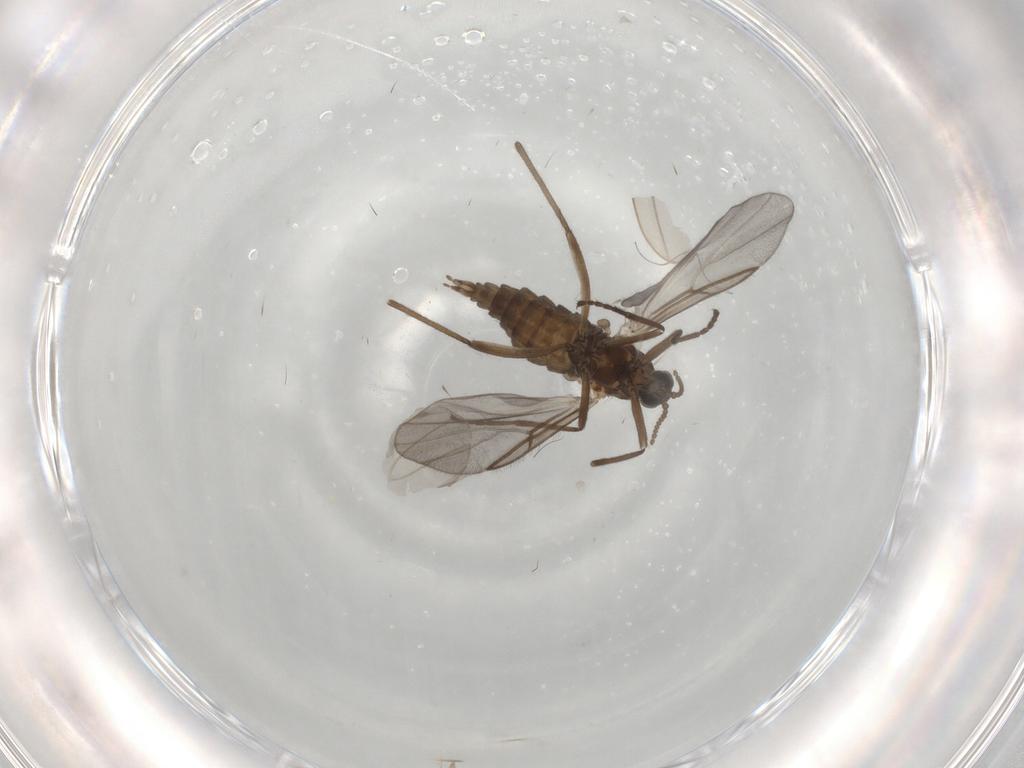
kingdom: Animalia
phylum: Arthropoda
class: Insecta
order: Diptera
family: Cecidomyiidae
